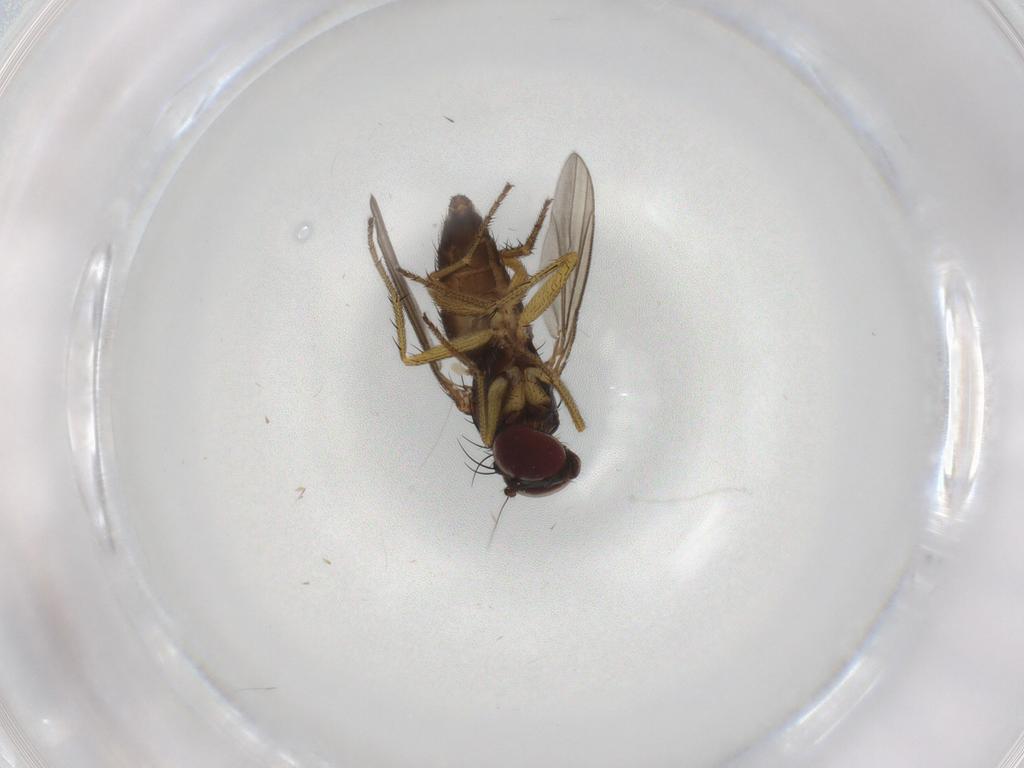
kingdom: Animalia
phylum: Arthropoda
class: Insecta
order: Diptera
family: Dolichopodidae
